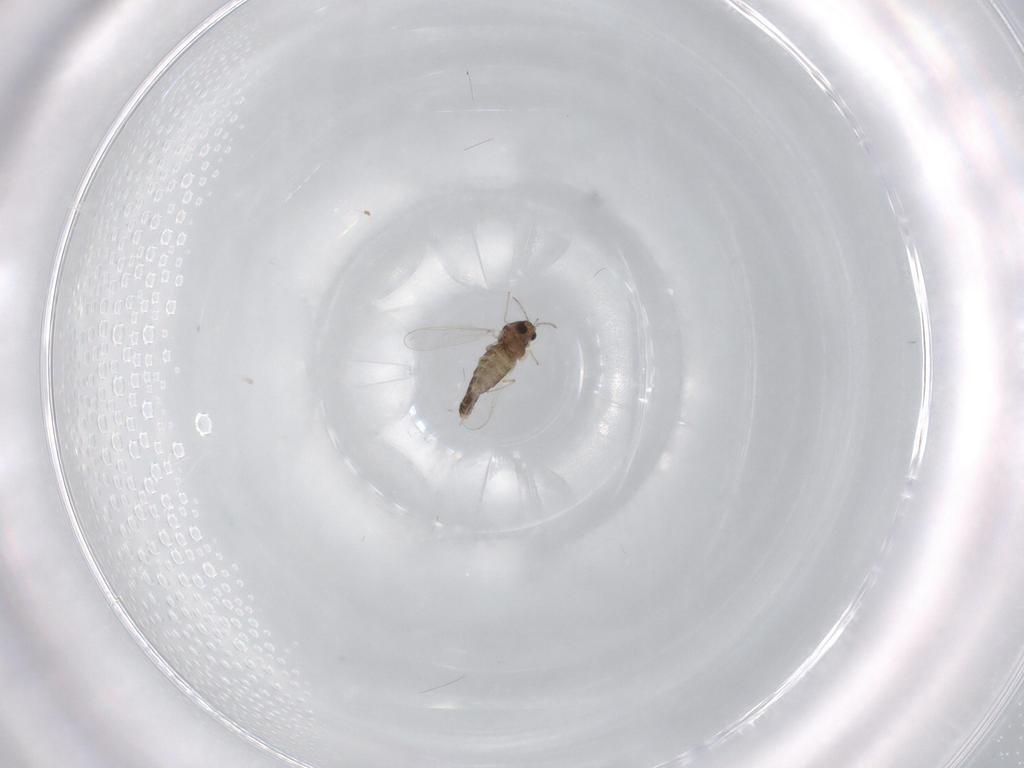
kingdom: Animalia
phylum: Arthropoda
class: Insecta
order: Diptera
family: Chironomidae
